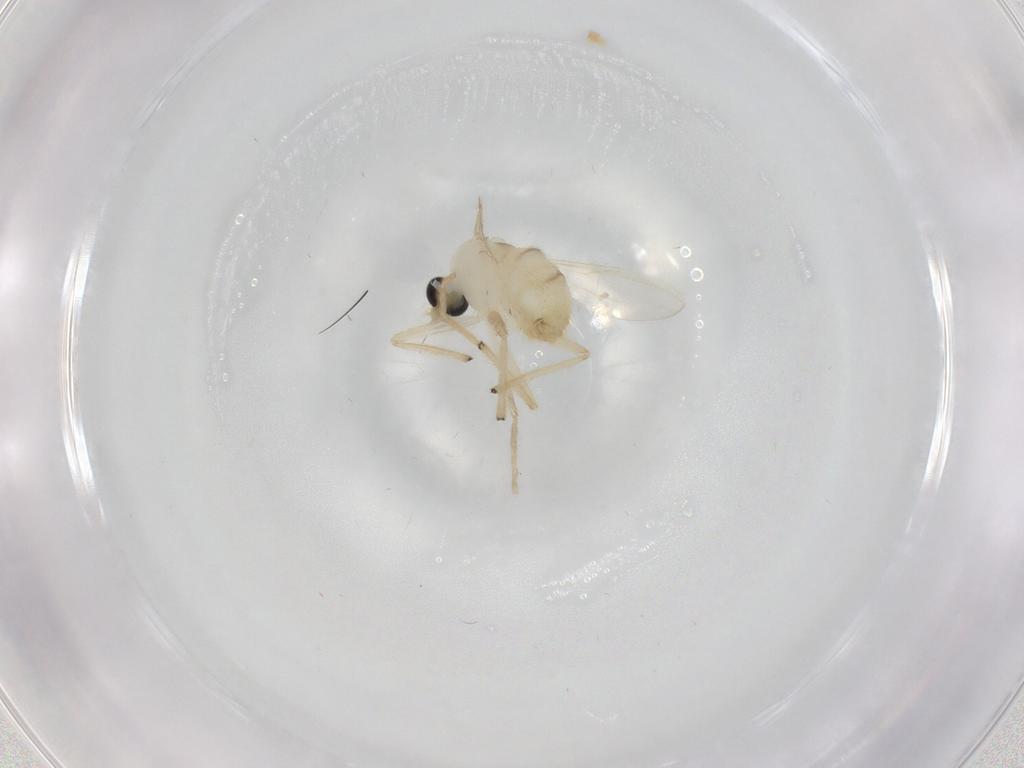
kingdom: Animalia
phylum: Arthropoda
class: Insecta
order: Diptera
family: Chironomidae
